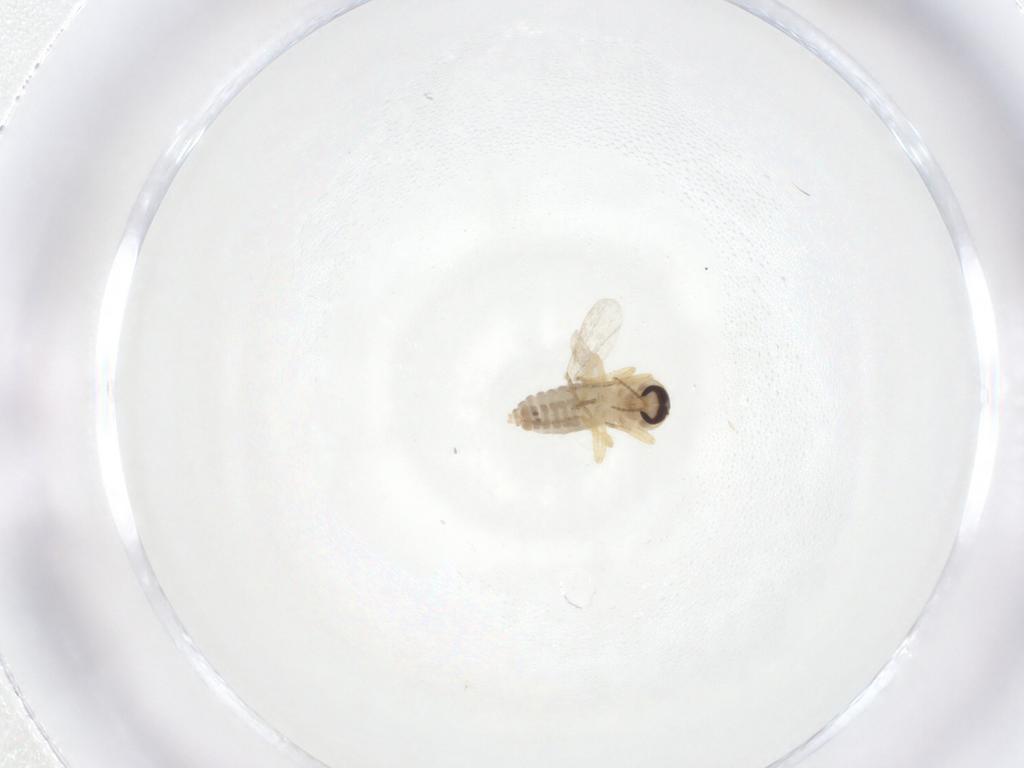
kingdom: Animalia
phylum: Arthropoda
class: Insecta
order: Diptera
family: Ceratopogonidae
